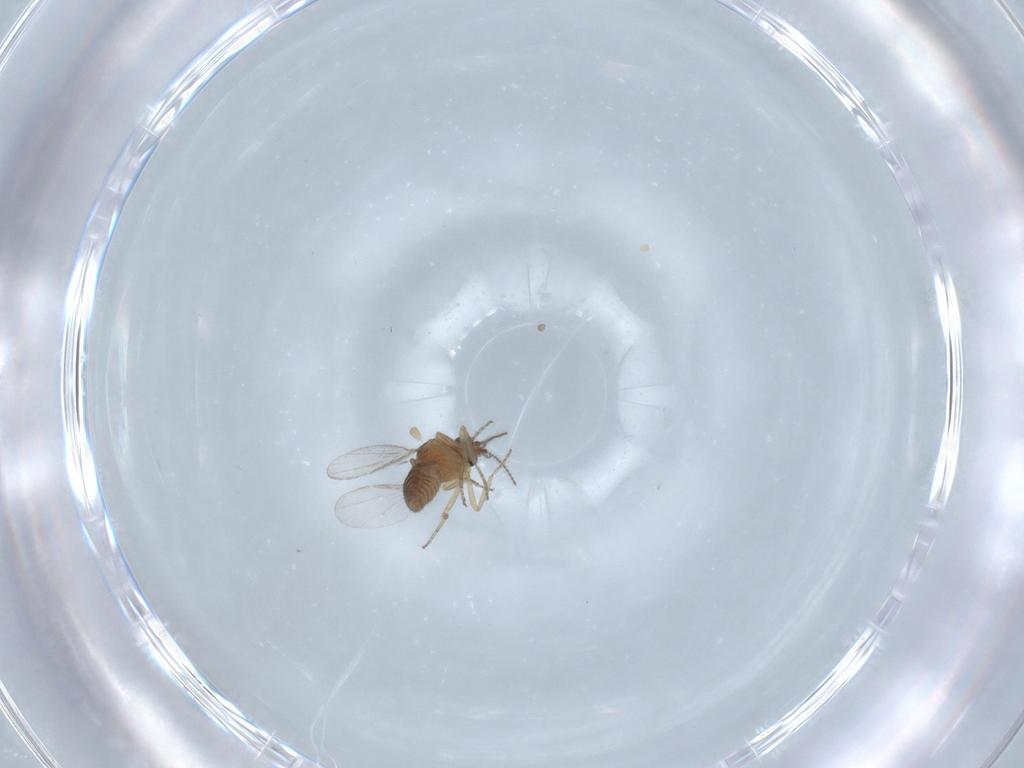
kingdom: Animalia
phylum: Arthropoda
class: Insecta
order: Diptera
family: Ceratopogonidae
